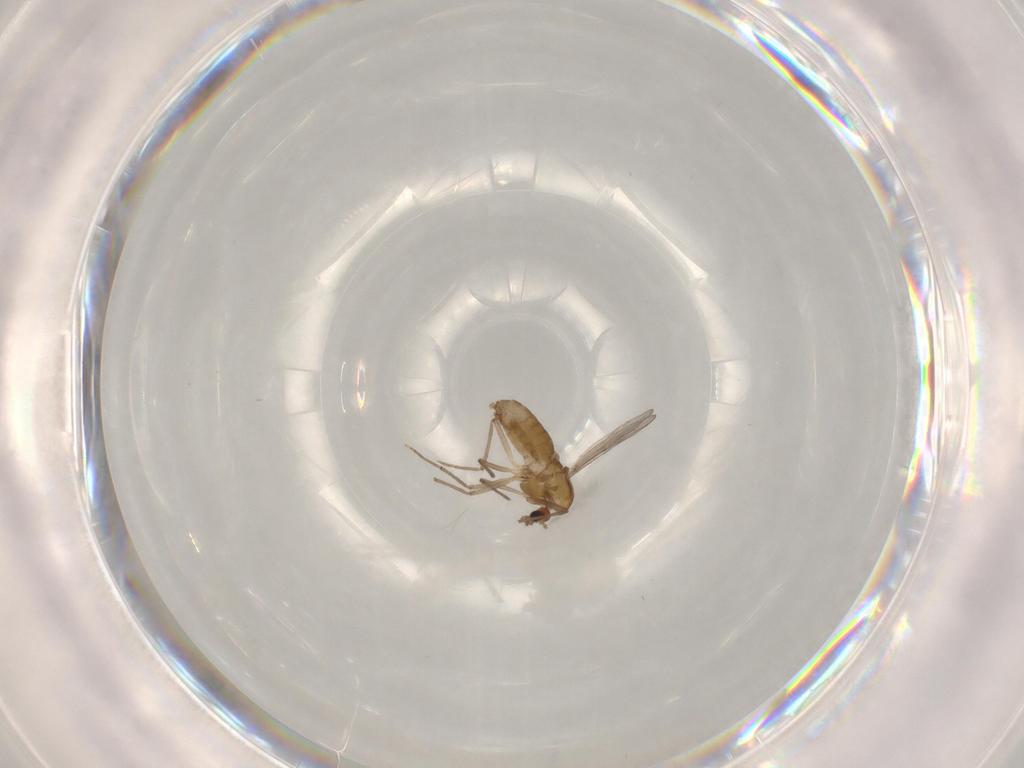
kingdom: Animalia
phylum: Arthropoda
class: Insecta
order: Diptera
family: Chironomidae
